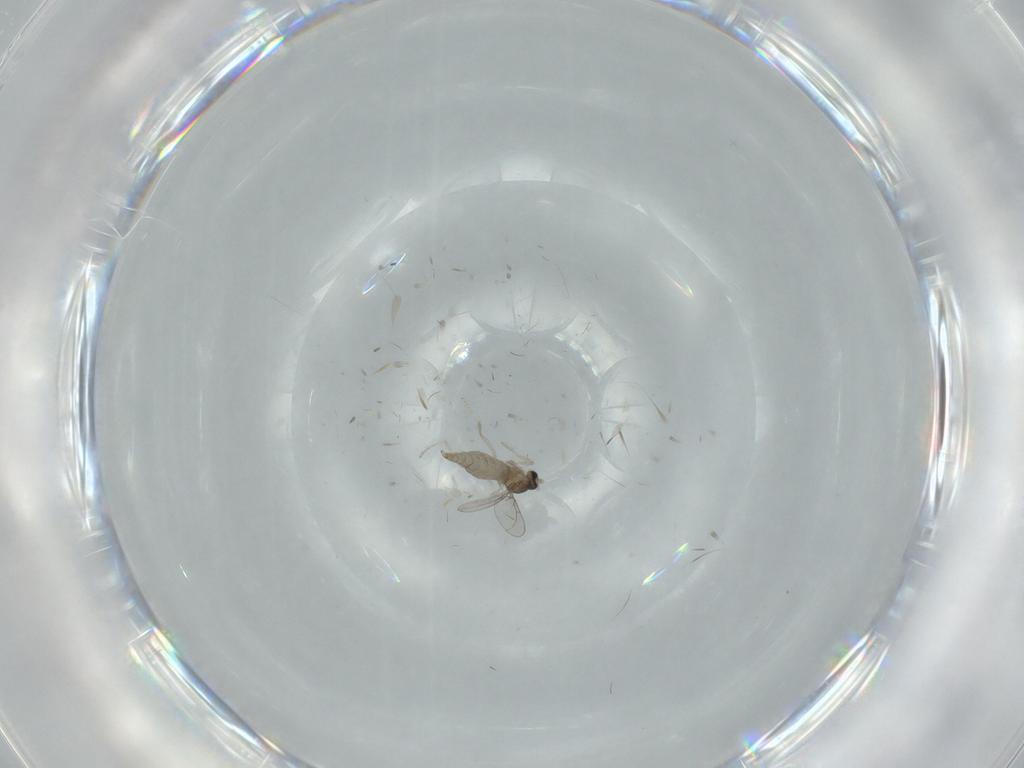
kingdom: Animalia
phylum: Arthropoda
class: Insecta
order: Diptera
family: Cecidomyiidae
